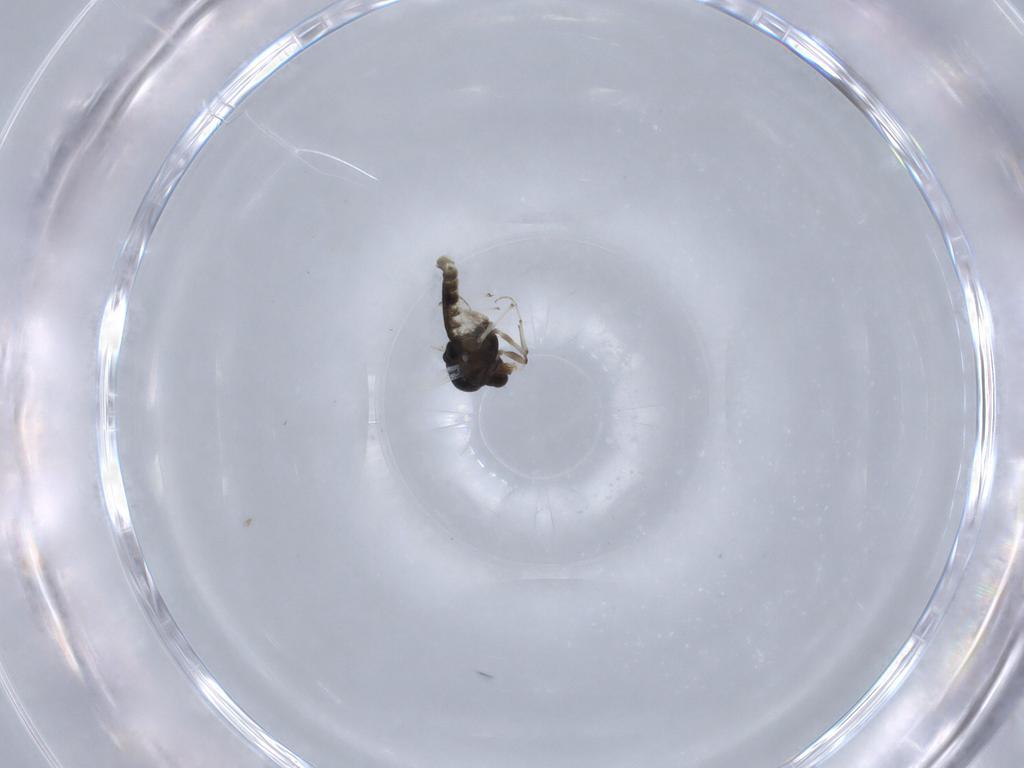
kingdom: Animalia
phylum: Arthropoda
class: Insecta
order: Diptera
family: Chironomidae
